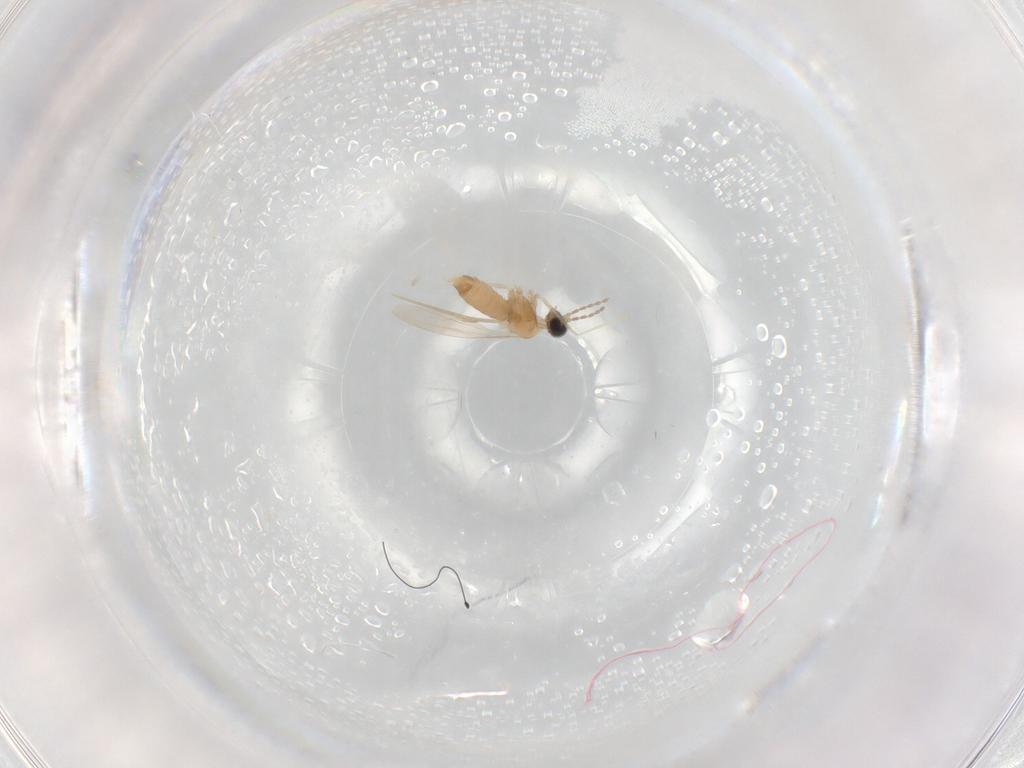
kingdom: Animalia
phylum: Arthropoda
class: Insecta
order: Diptera
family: Cecidomyiidae
